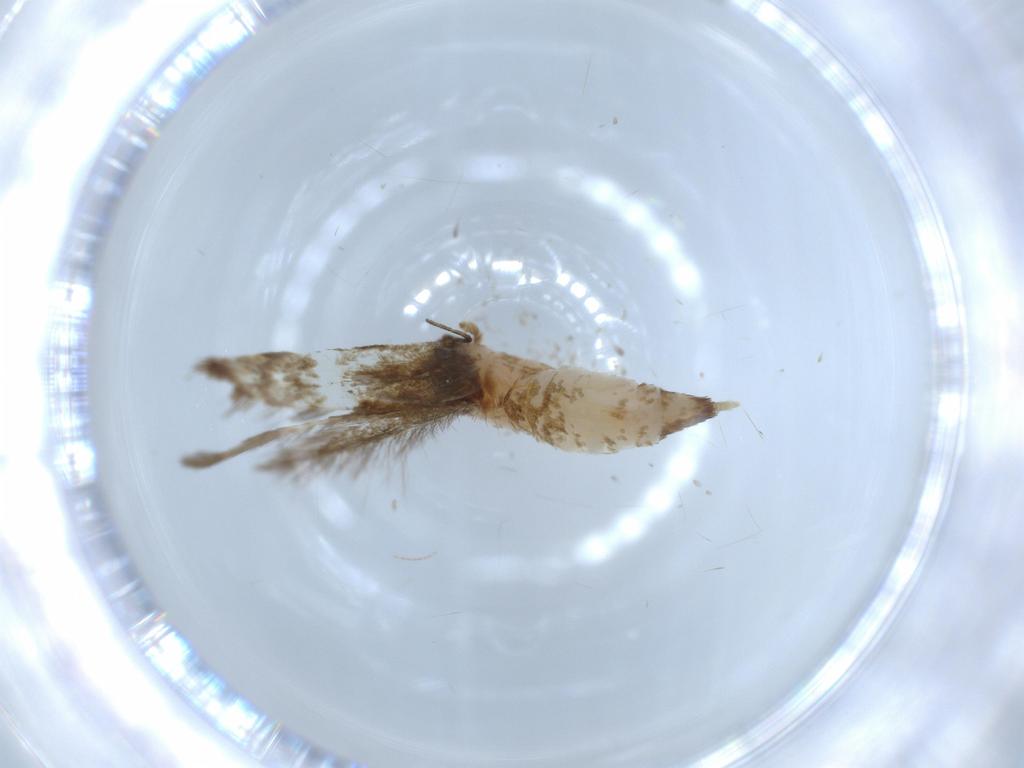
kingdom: Animalia
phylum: Arthropoda
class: Insecta
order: Lepidoptera
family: Tineidae
